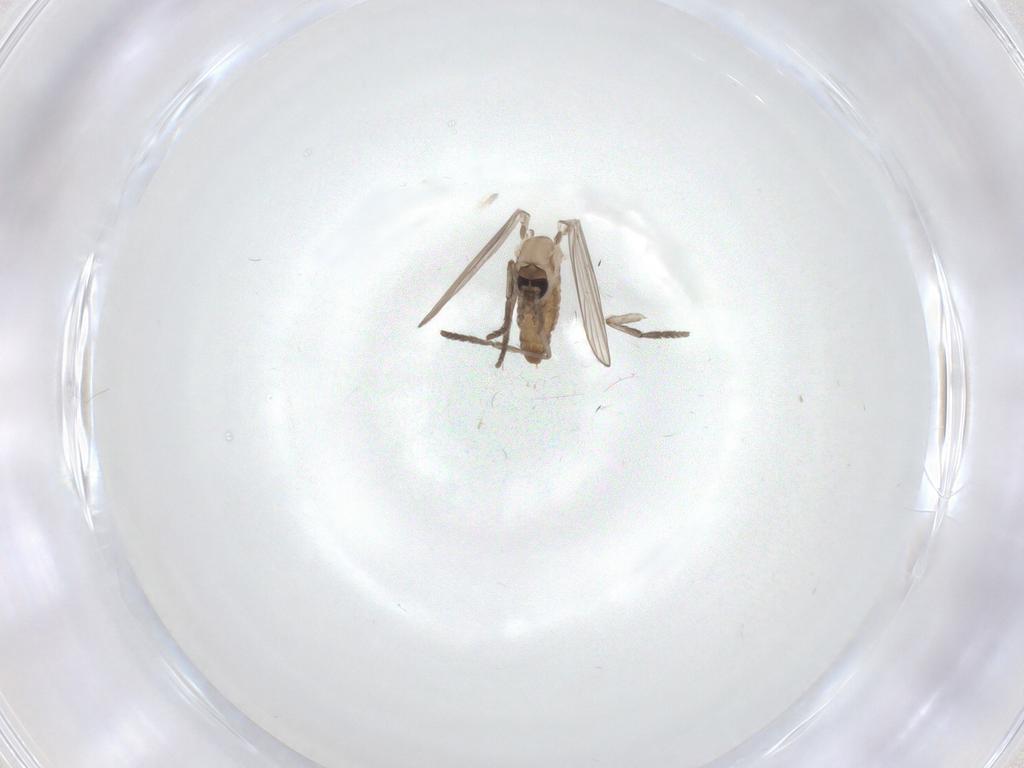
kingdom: Animalia
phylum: Arthropoda
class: Insecta
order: Diptera
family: Psychodidae
